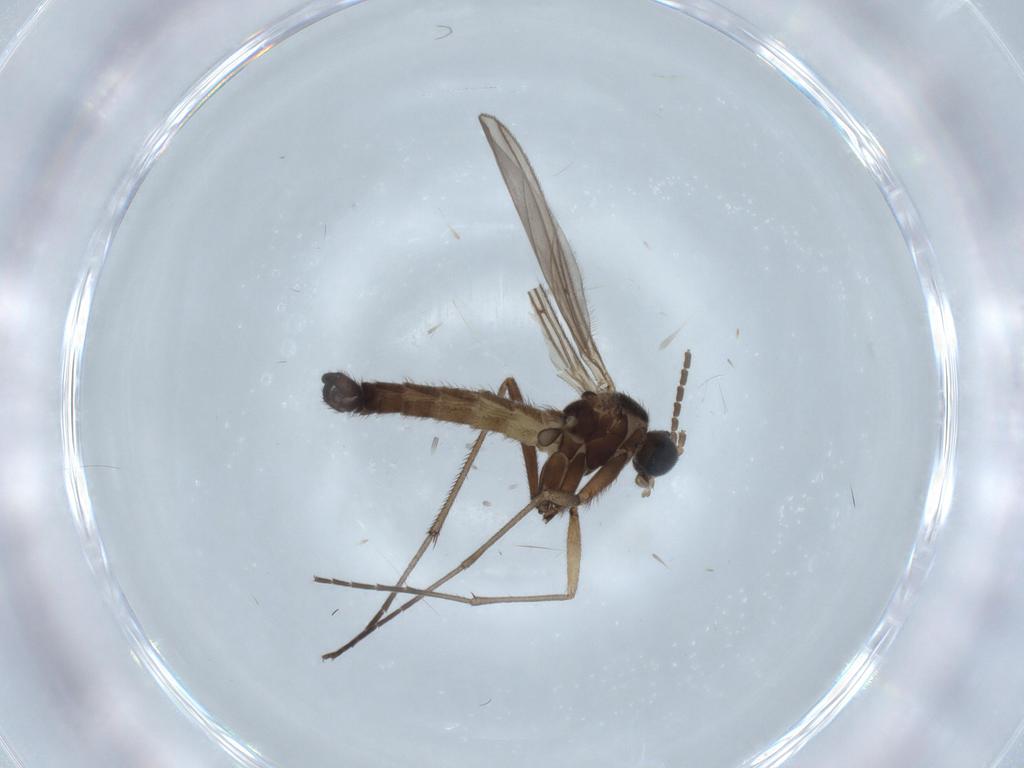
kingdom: Animalia
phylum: Arthropoda
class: Insecta
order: Diptera
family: Sciaridae
